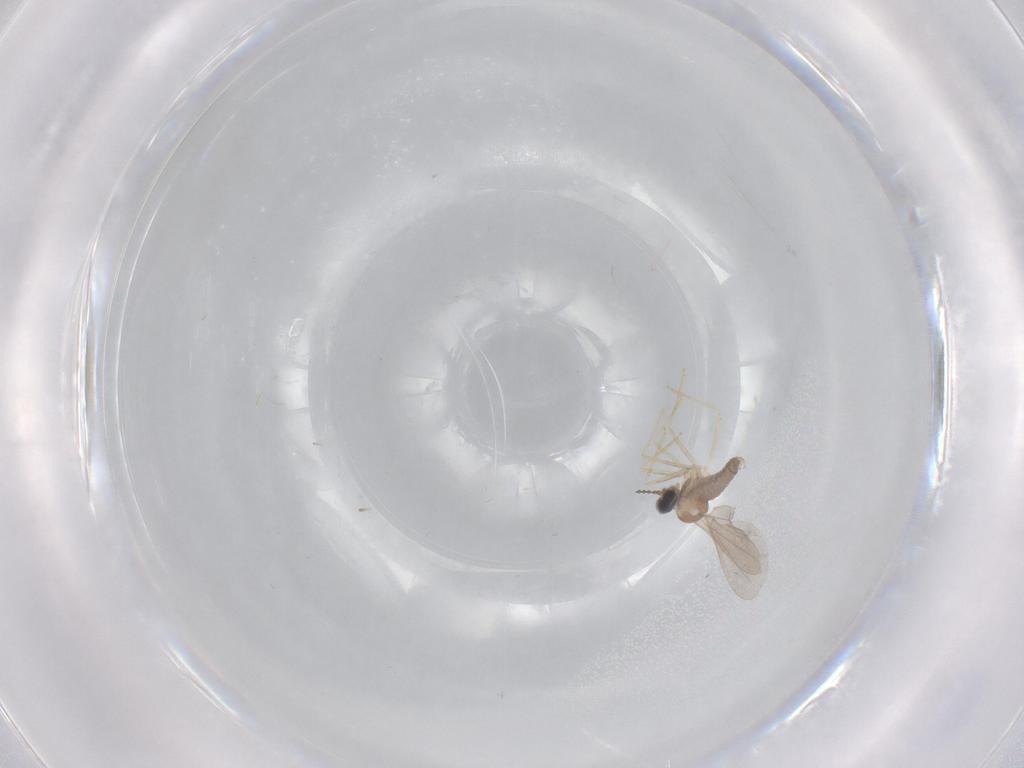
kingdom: Animalia
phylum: Arthropoda
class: Insecta
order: Diptera
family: Cecidomyiidae
